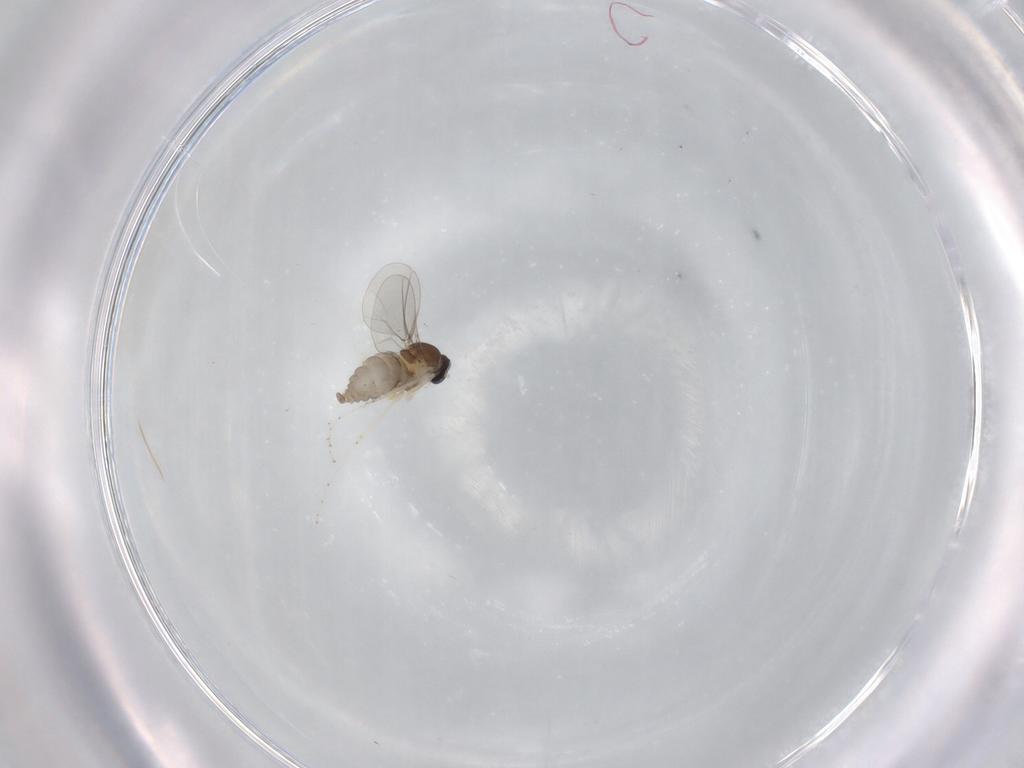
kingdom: Animalia
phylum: Arthropoda
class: Insecta
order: Diptera
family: Cecidomyiidae
